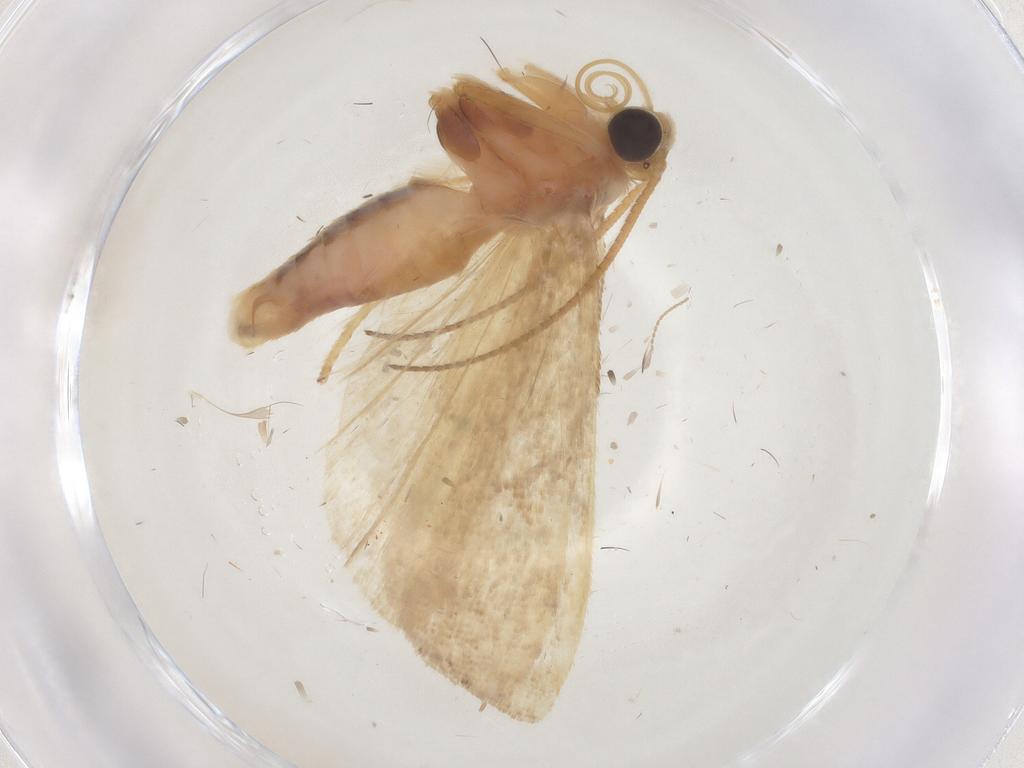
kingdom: Animalia
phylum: Arthropoda
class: Insecta
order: Lepidoptera
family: Pyralidae
